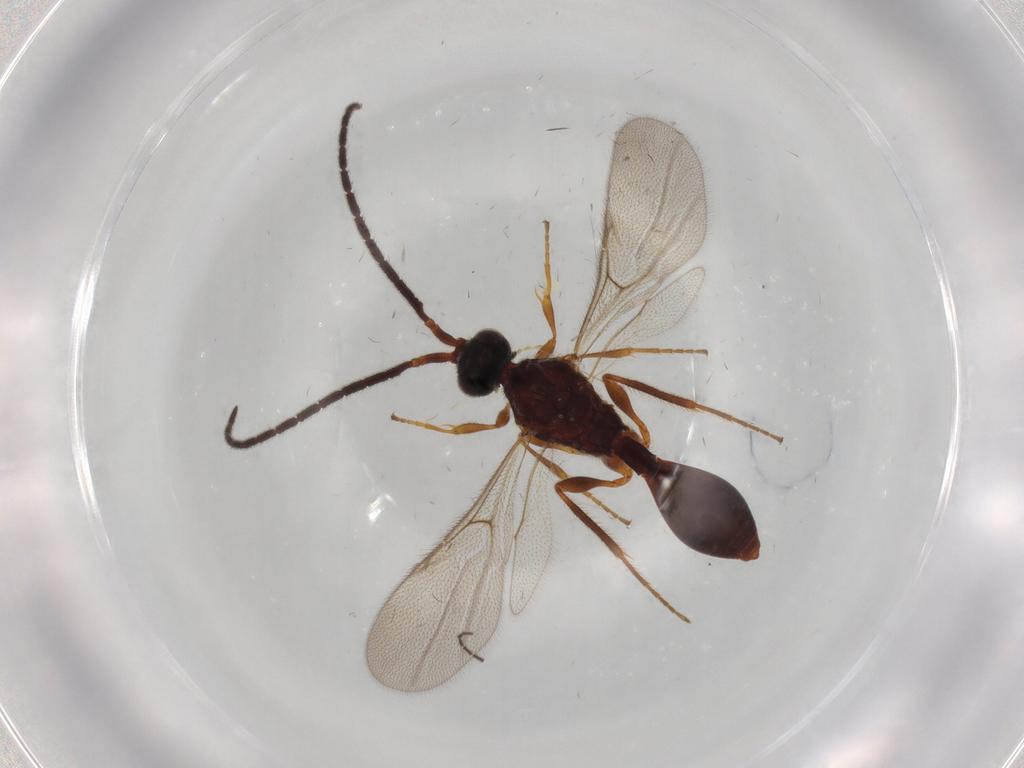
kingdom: Animalia
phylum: Arthropoda
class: Insecta
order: Hymenoptera
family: Diapriidae
